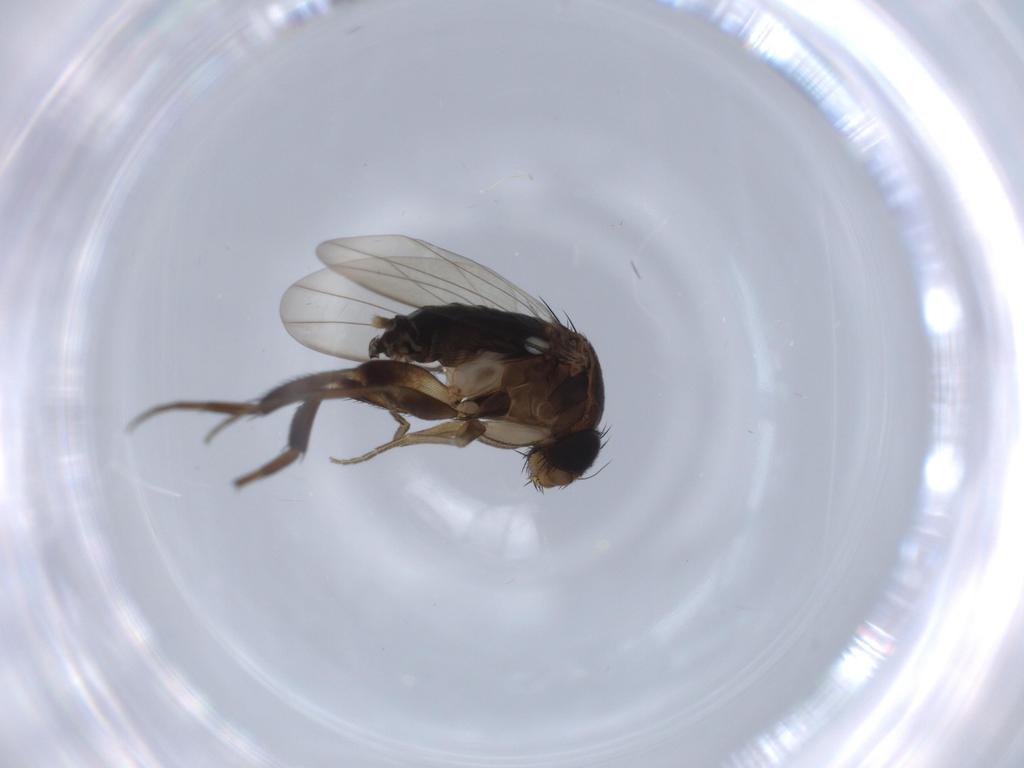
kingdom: Animalia
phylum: Arthropoda
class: Insecta
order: Diptera
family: Phoridae
